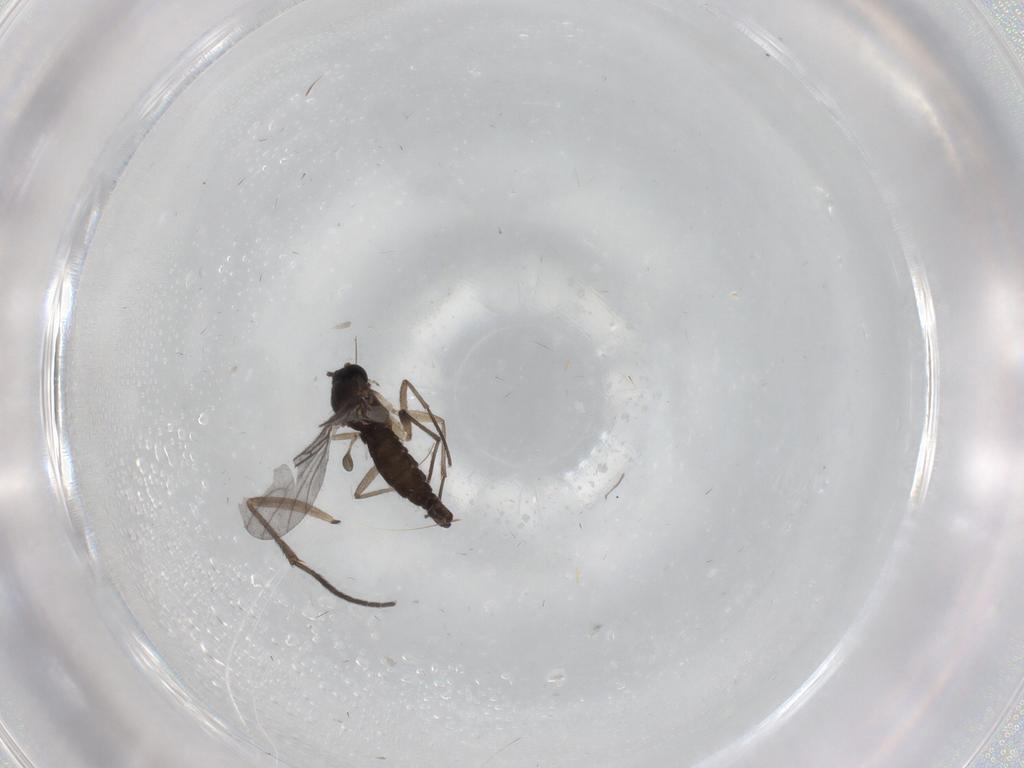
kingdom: Animalia
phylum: Arthropoda
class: Insecta
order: Diptera
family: Sciaridae
